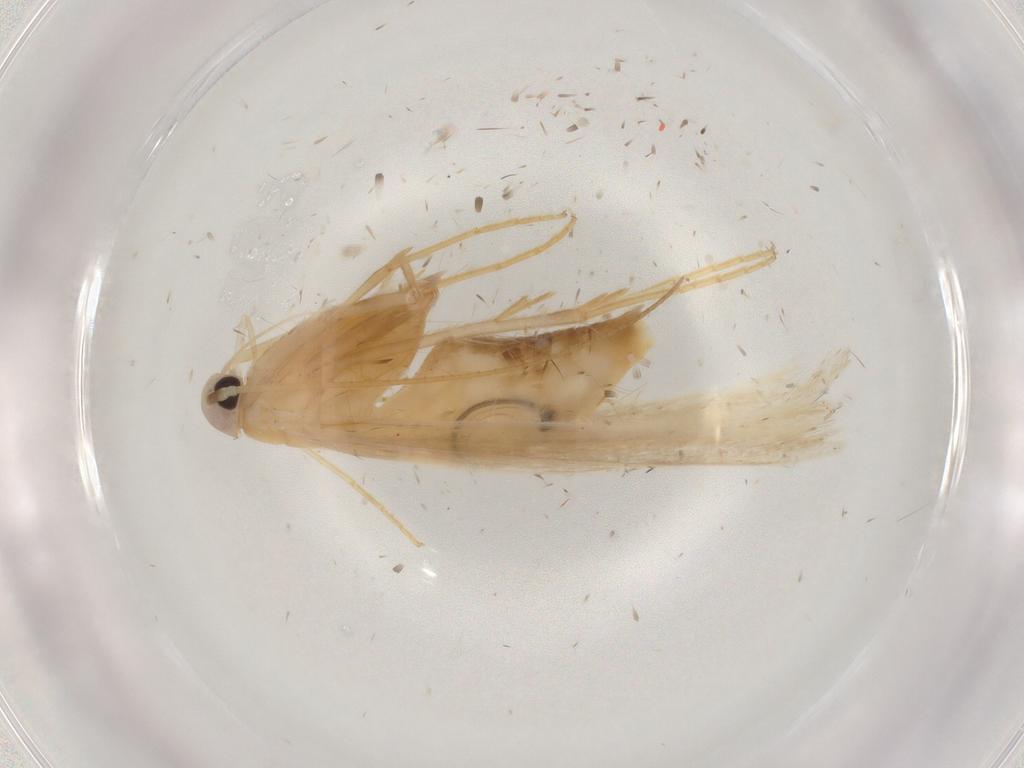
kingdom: Animalia
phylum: Arthropoda
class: Insecta
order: Lepidoptera
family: Xyloryctidae
